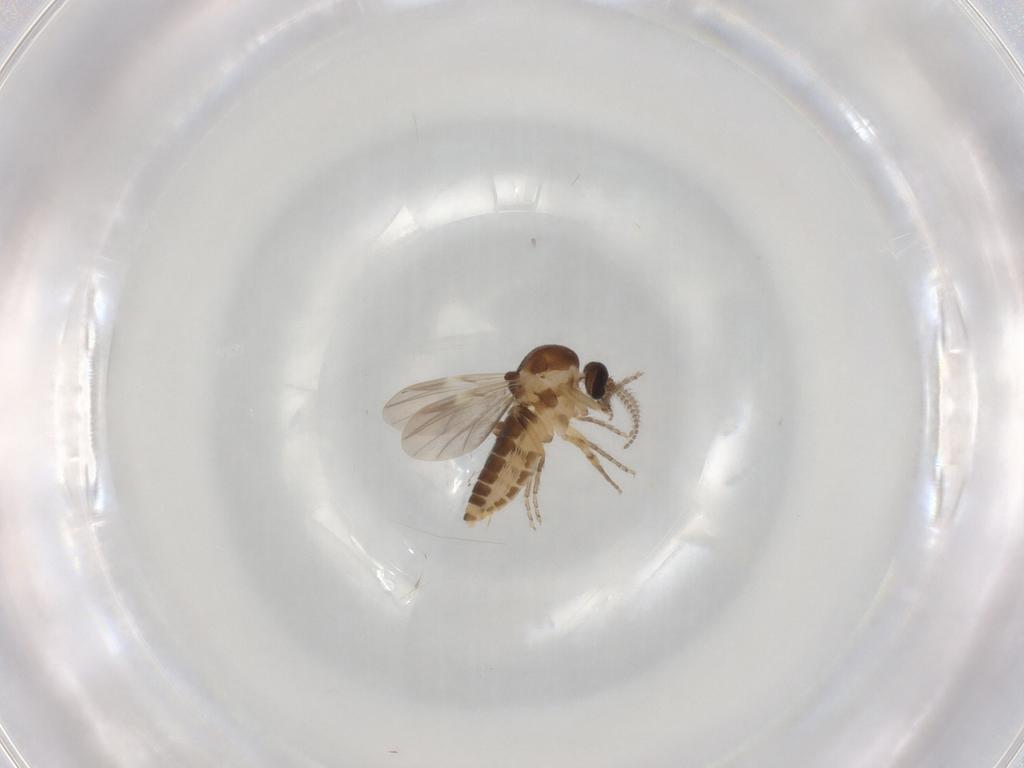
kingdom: Animalia
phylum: Arthropoda
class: Insecta
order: Diptera
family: Ceratopogonidae
